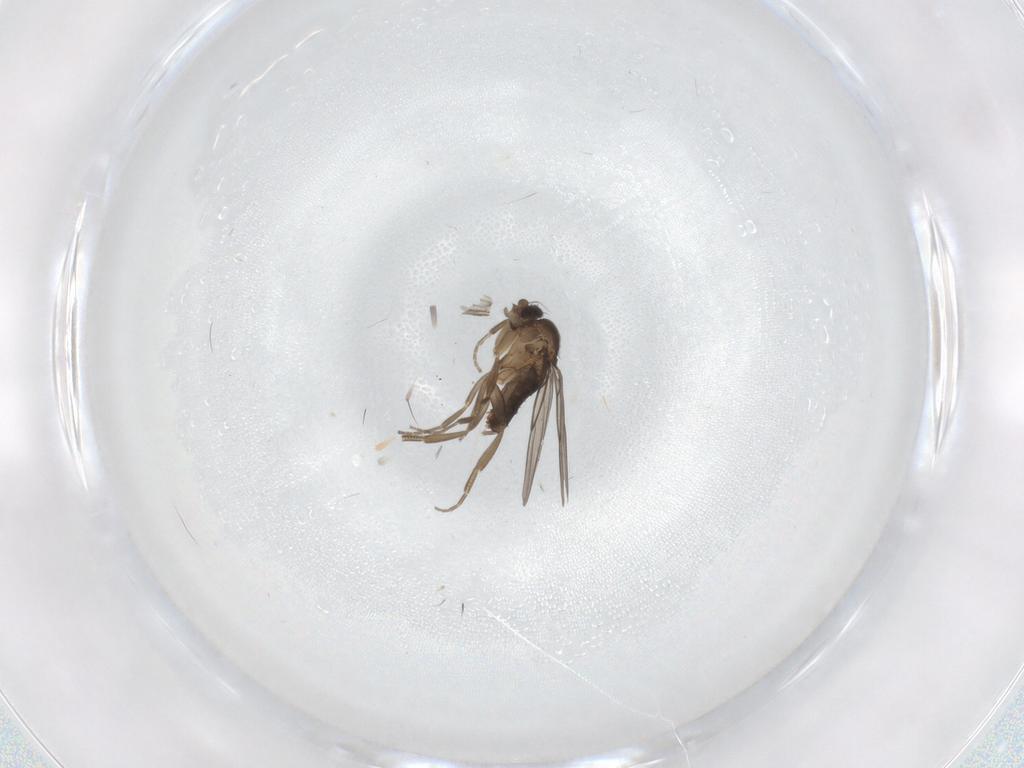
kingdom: Animalia
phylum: Arthropoda
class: Insecta
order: Diptera
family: Phoridae
